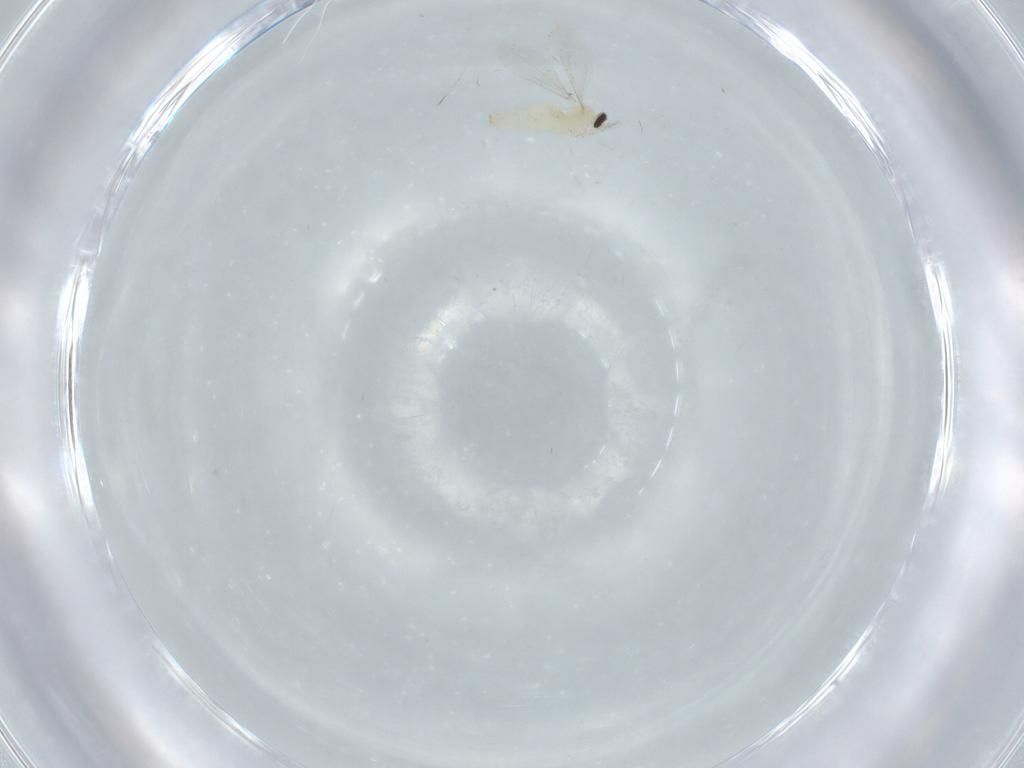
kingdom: Animalia
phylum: Arthropoda
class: Insecta
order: Diptera
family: Cecidomyiidae
